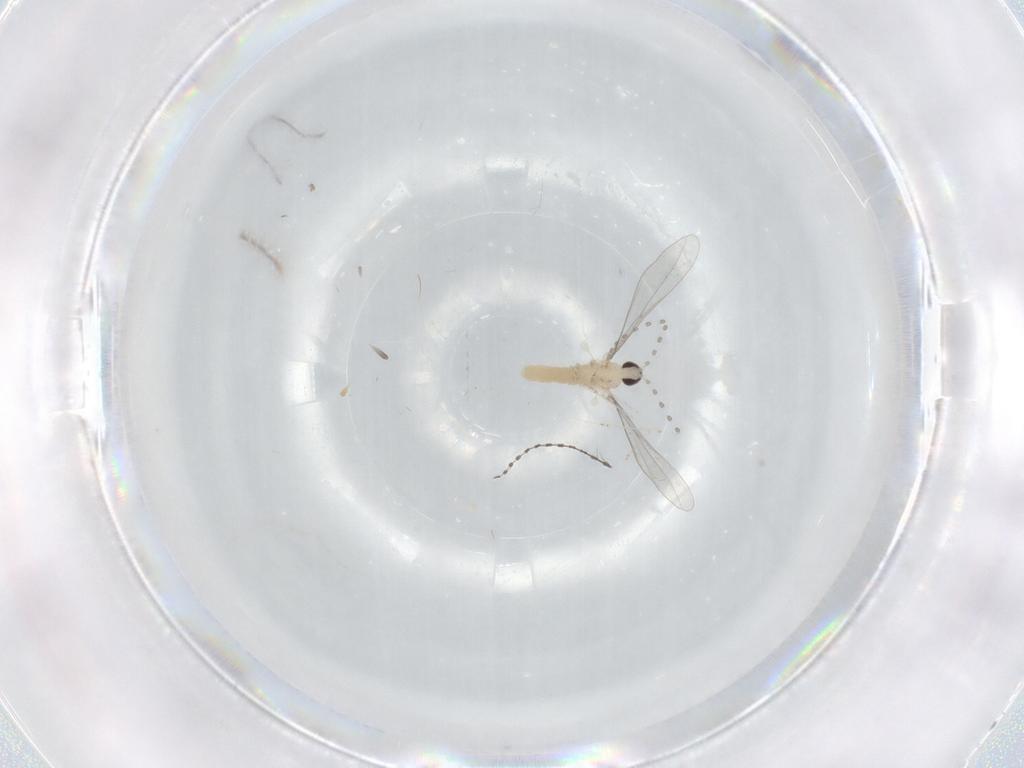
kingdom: Animalia
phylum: Arthropoda
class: Insecta
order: Diptera
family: Cecidomyiidae
